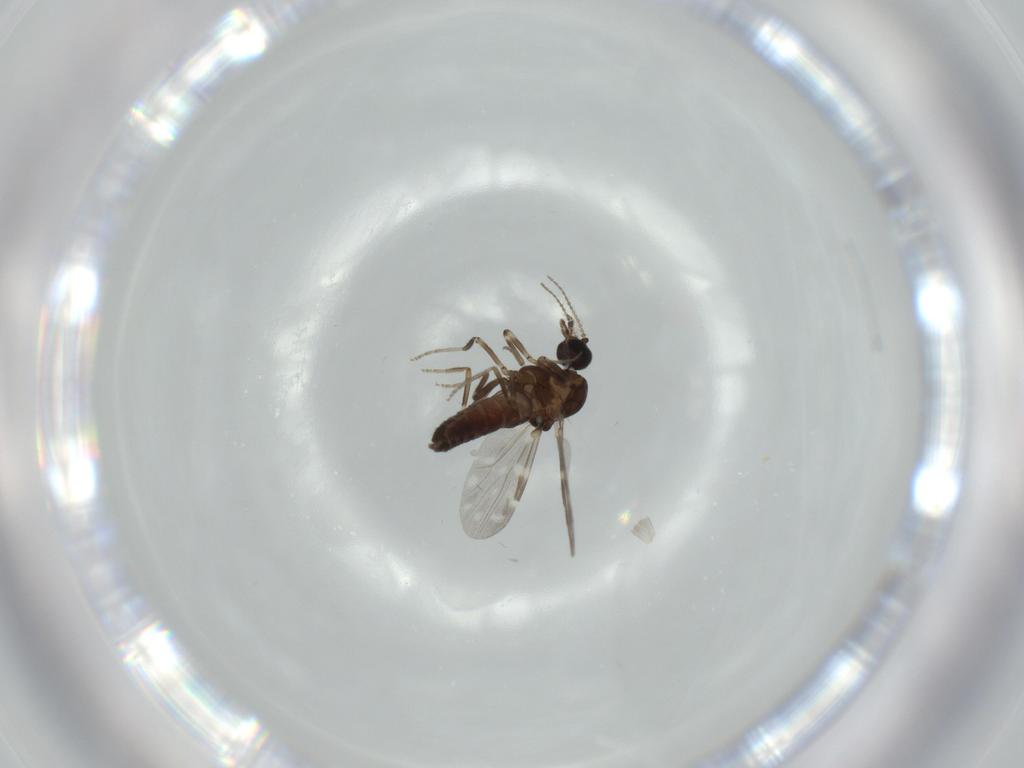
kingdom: Animalia
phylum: Arthropoda
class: Insecta
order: Diptera
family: Ceratopogonidae
